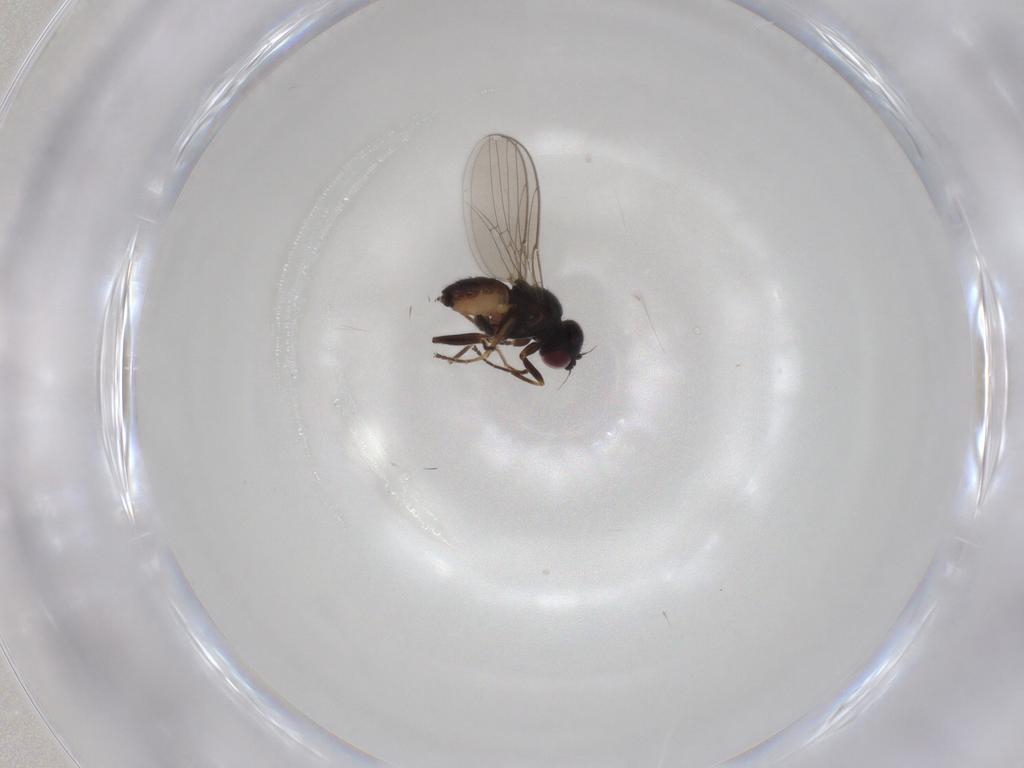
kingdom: Animalia
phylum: Arthropoda
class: Insecta
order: Diptera
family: Chloropidae
